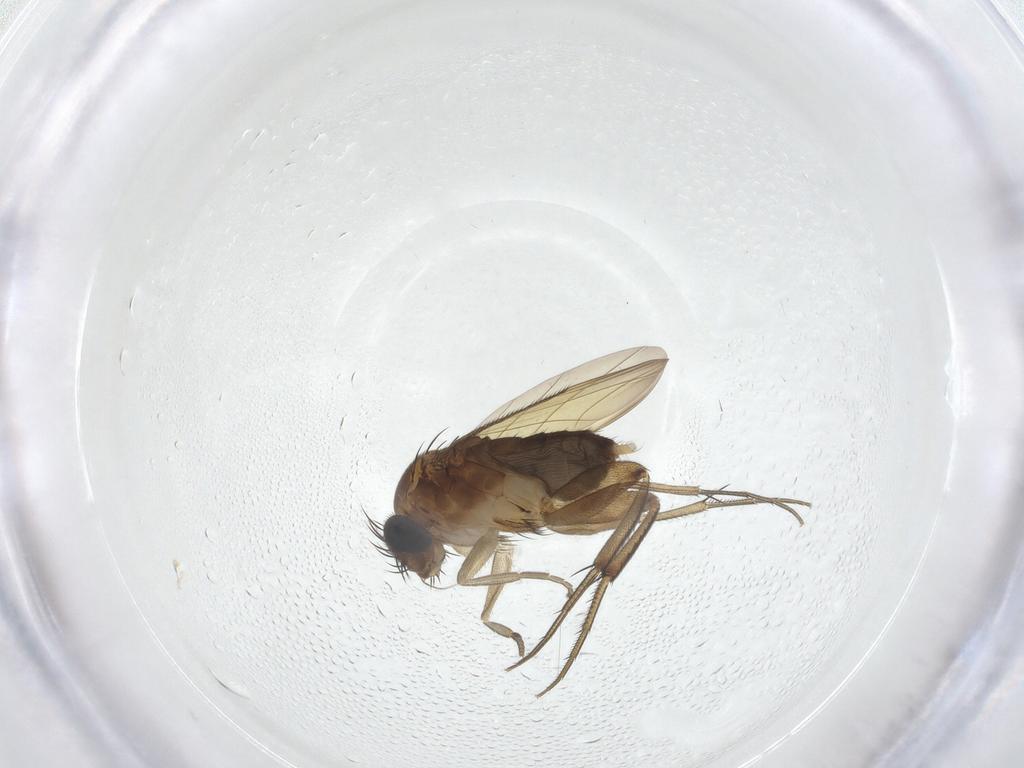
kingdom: Animalia
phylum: Arthropoda
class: Insecta
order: Diptera
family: Phoridae
